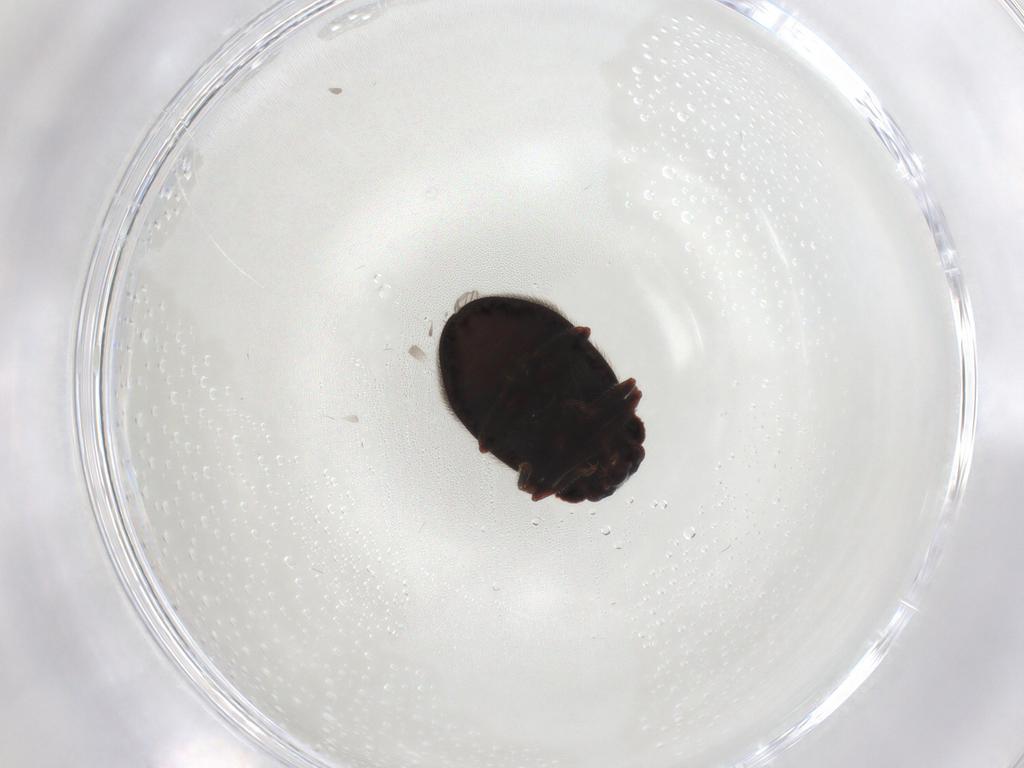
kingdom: Animalia
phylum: Arthropoda
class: Insecta
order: Coleoptera
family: Sphindidae
